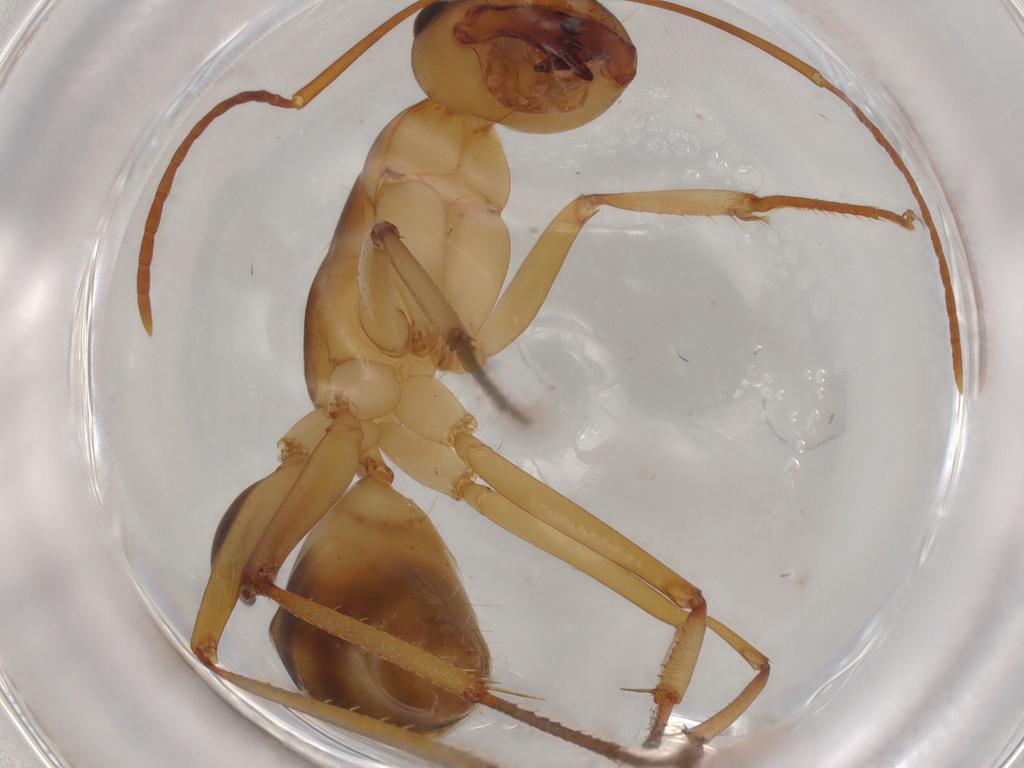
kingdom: Animalia
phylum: Arthropoda
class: Insecta
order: Hymenoptera
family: Formicidae
